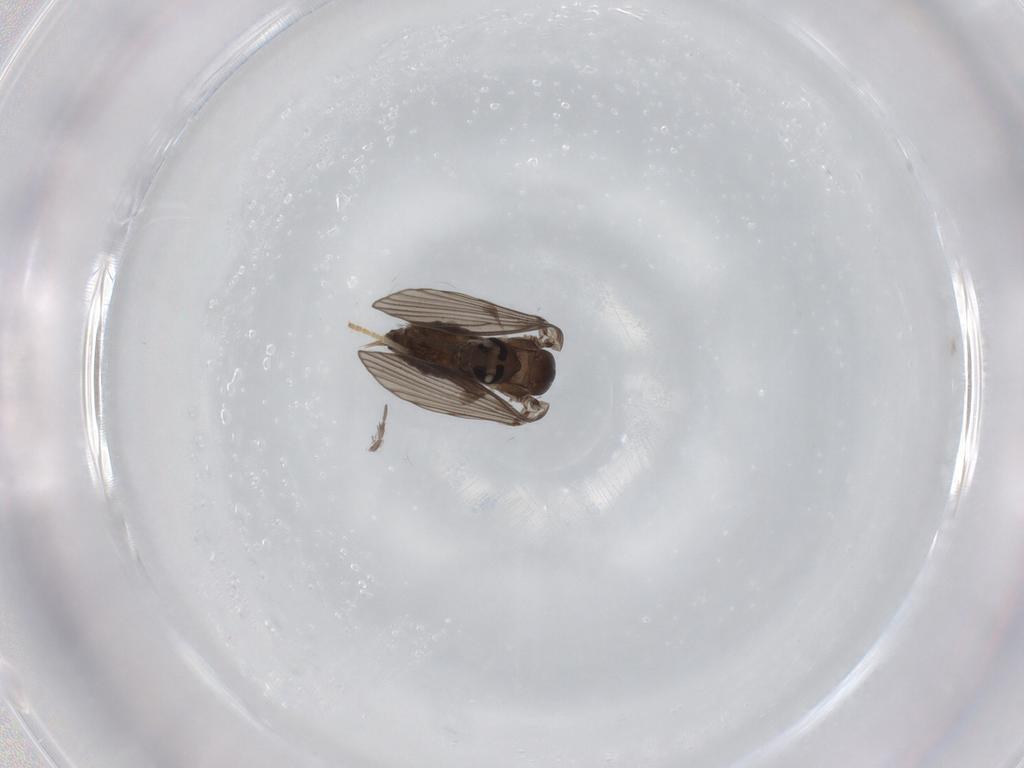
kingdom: Animalia
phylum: Arthropoda
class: Insecta
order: Diptera
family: Psychodidae
